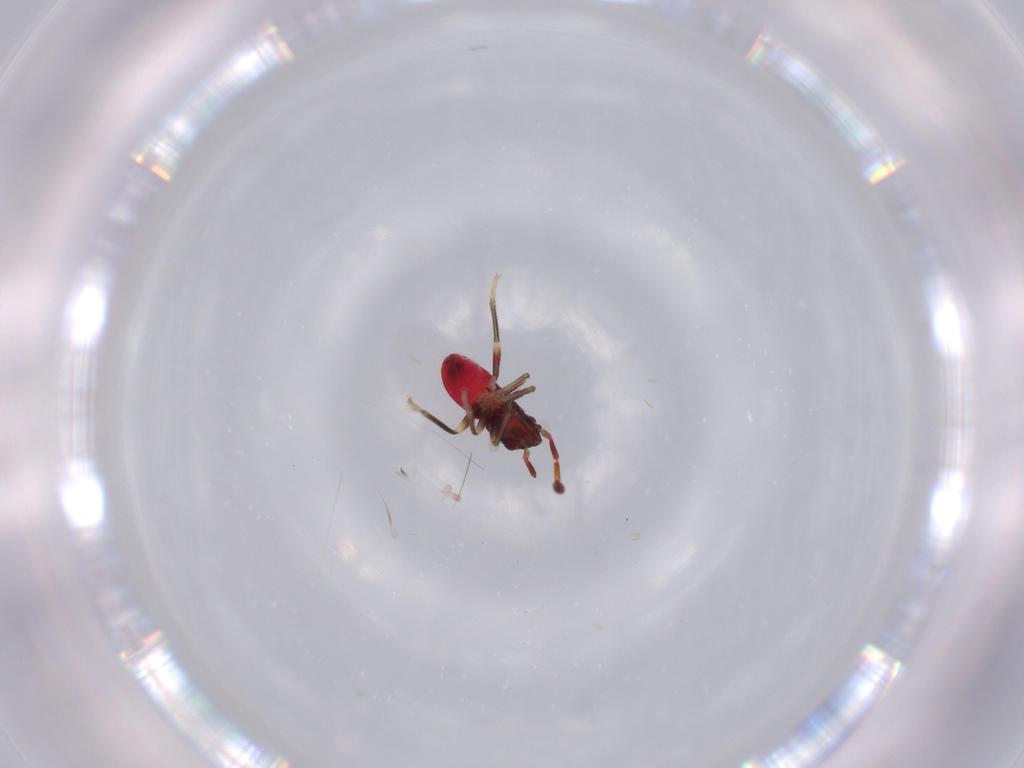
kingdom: Animalia
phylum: Arthropoda
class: Insecta
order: Hemiptera
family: Rhyparochromidae
